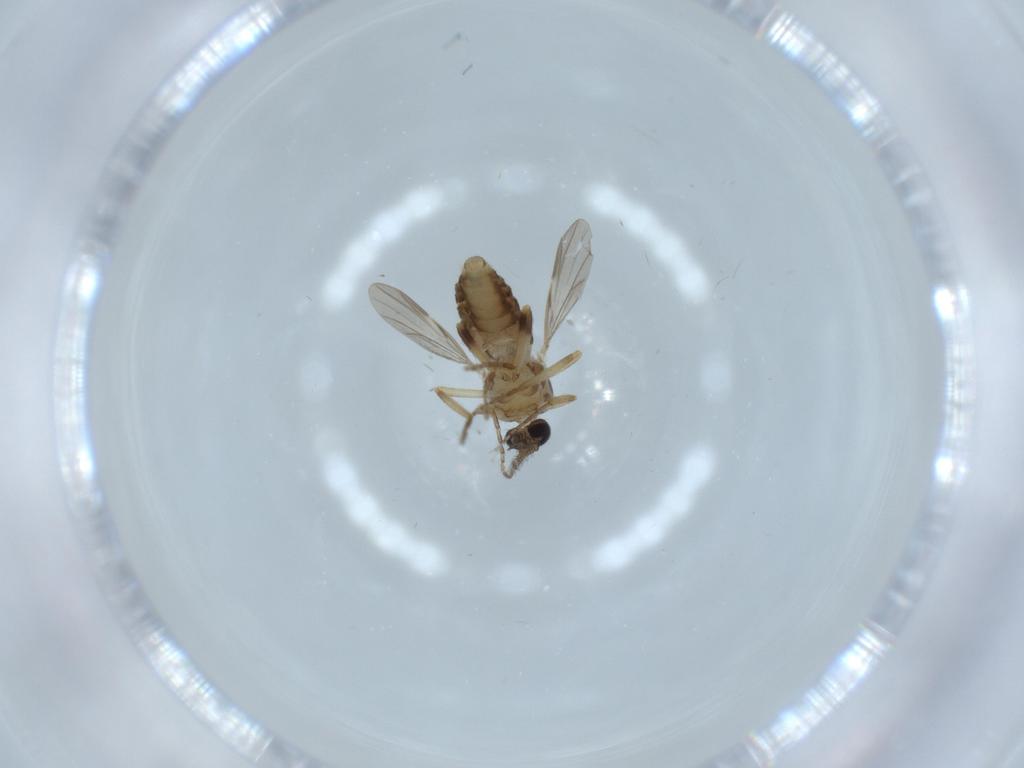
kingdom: Animalia
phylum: Arthropoda
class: Insecta
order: Diptera
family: Ceratopogonidae
